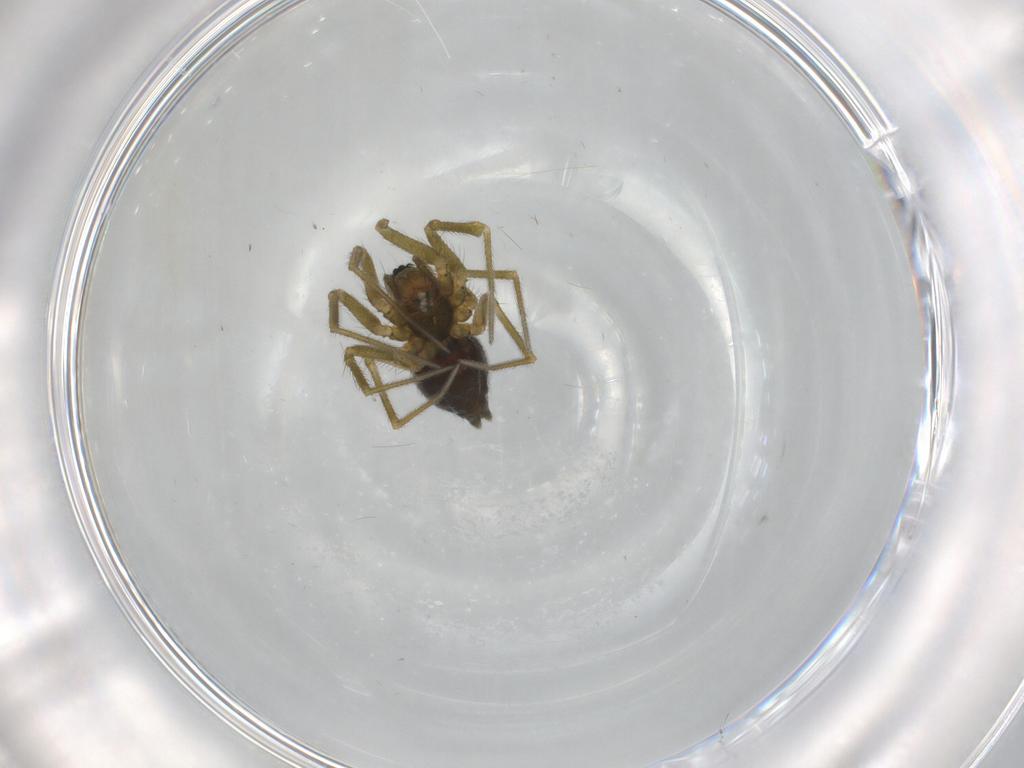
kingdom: Animalia
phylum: Arthropoda
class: Arachnida
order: Araneae
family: Linyphiidae
